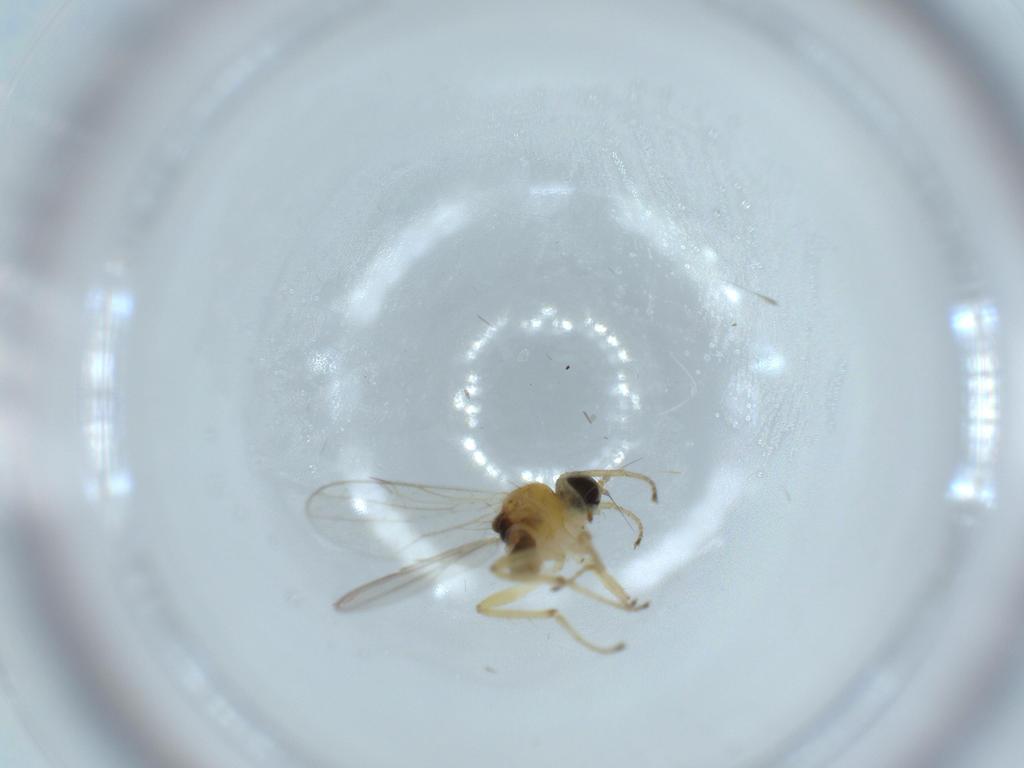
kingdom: Animalia
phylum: Arthropoda
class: Insecta
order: Diptera
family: Hybotidae
